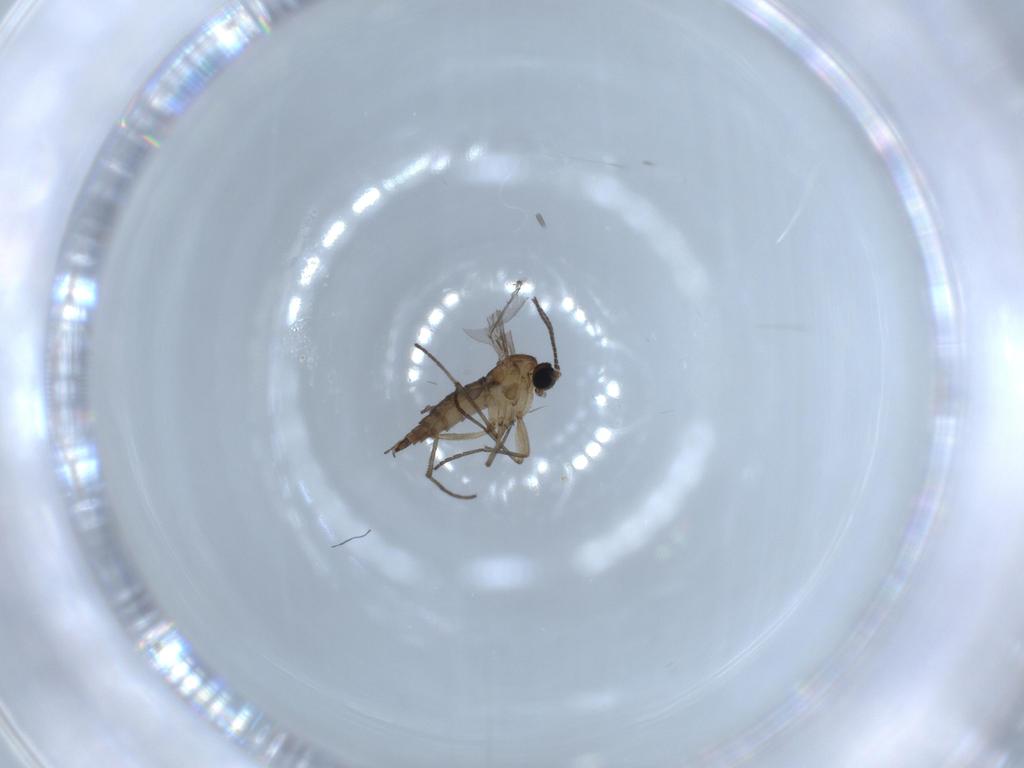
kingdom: Animalia
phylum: Arthropoda
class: Insecta
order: Diptera
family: Sciaridae
